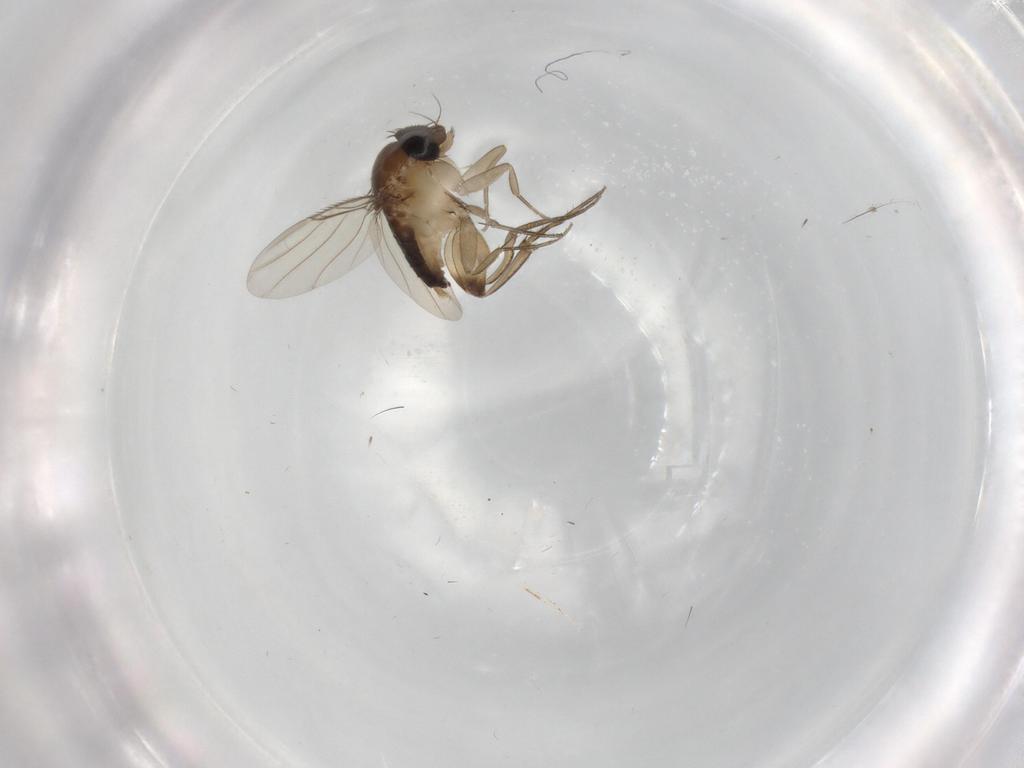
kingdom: Animalia
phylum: Arthropoda
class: Insecta
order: Diptera
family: Phoridae
